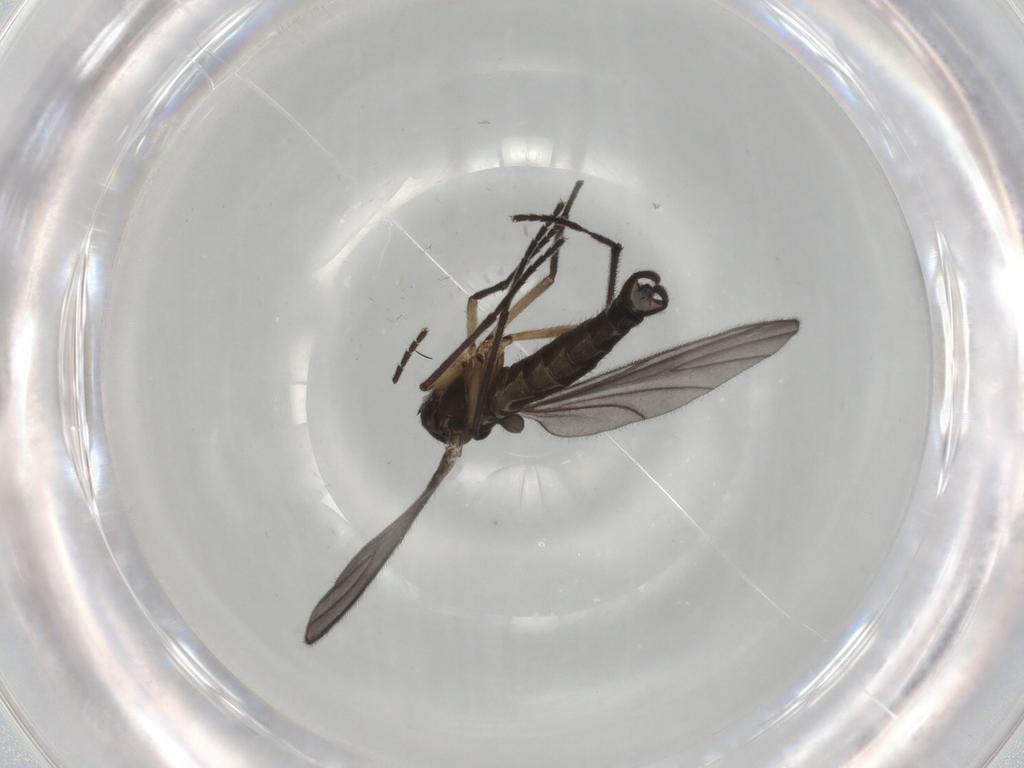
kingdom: Animalia
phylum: Arthropoda
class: Insecta
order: Diptera
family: Sciaridae
